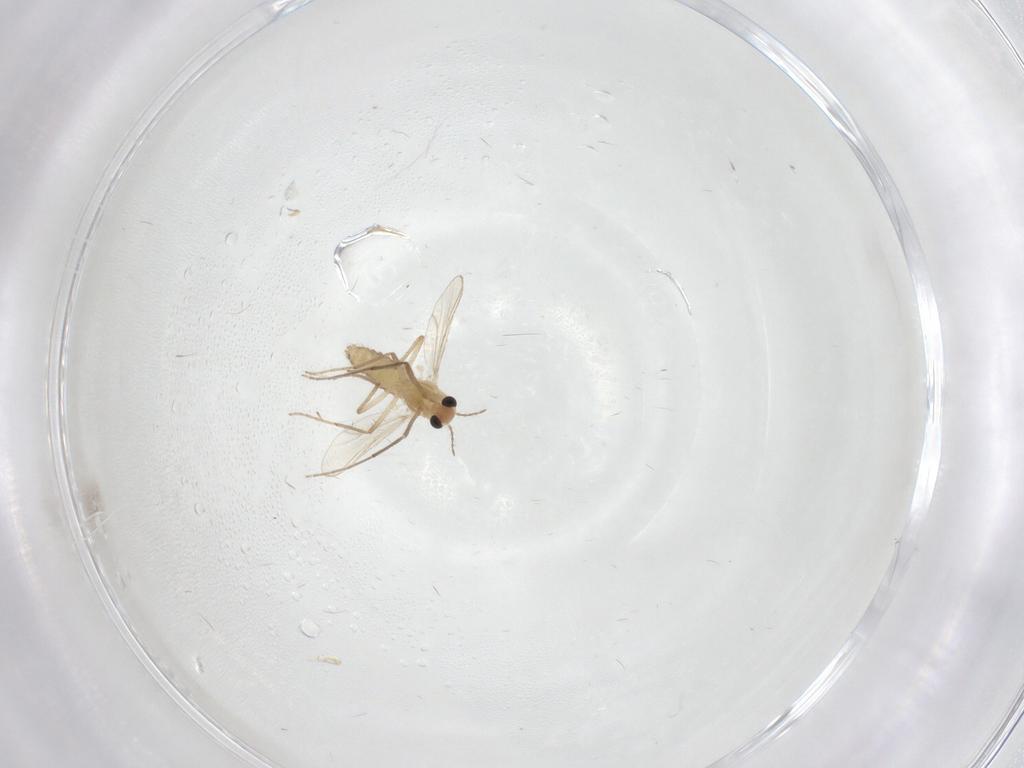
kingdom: Animalia
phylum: Arthropoda
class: Insecta
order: Diptera
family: Chironomidae
